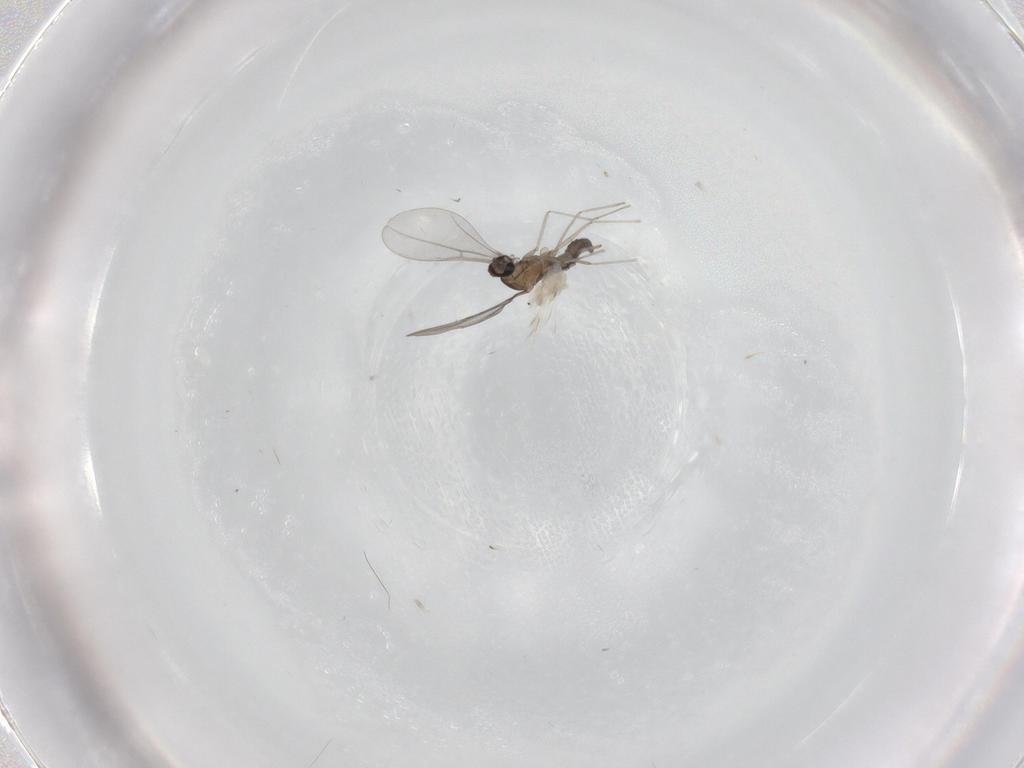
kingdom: Animalia
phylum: Arthropoda
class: Insecta
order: Diptera
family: Cecidomyiidae
